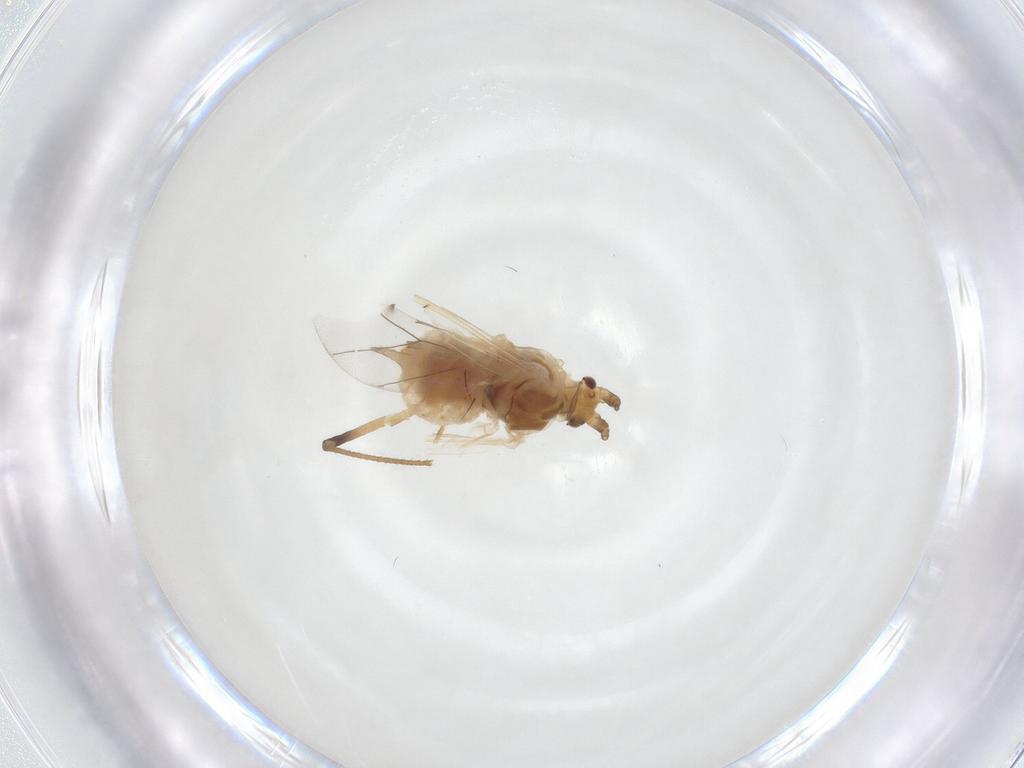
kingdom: Animalia
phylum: Arthropoda
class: Insecta
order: Hemiptera
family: Aphididae
